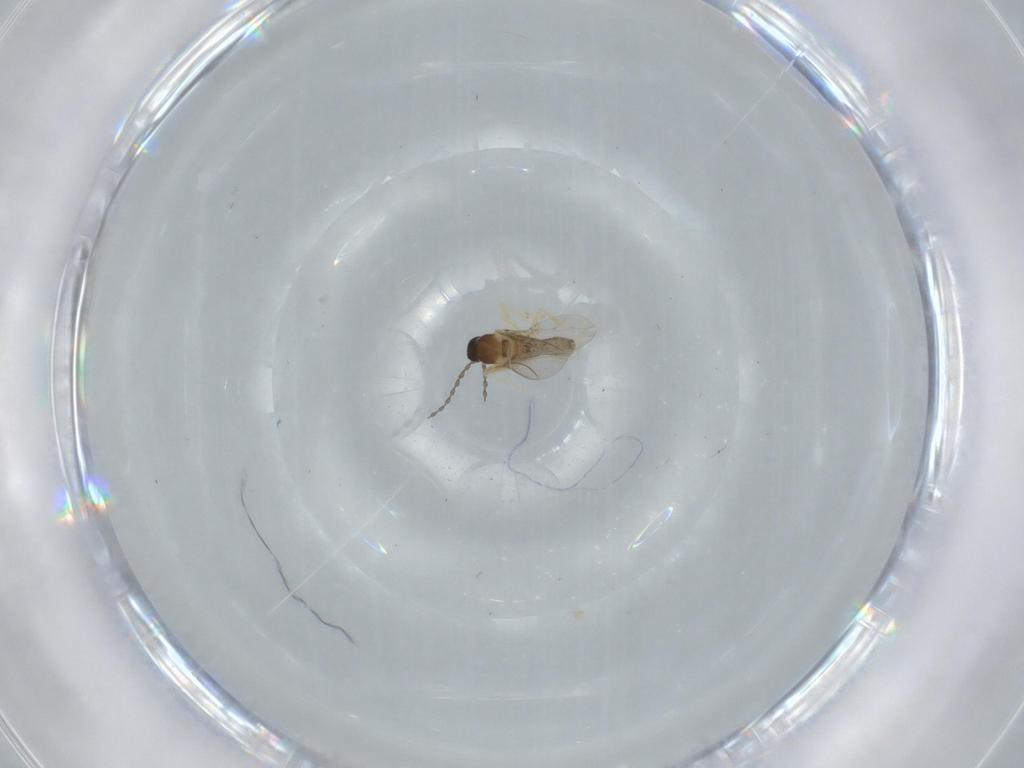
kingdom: Animalia
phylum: Arthropoda
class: Insecta
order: Diptera
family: Cecidomyiidae
